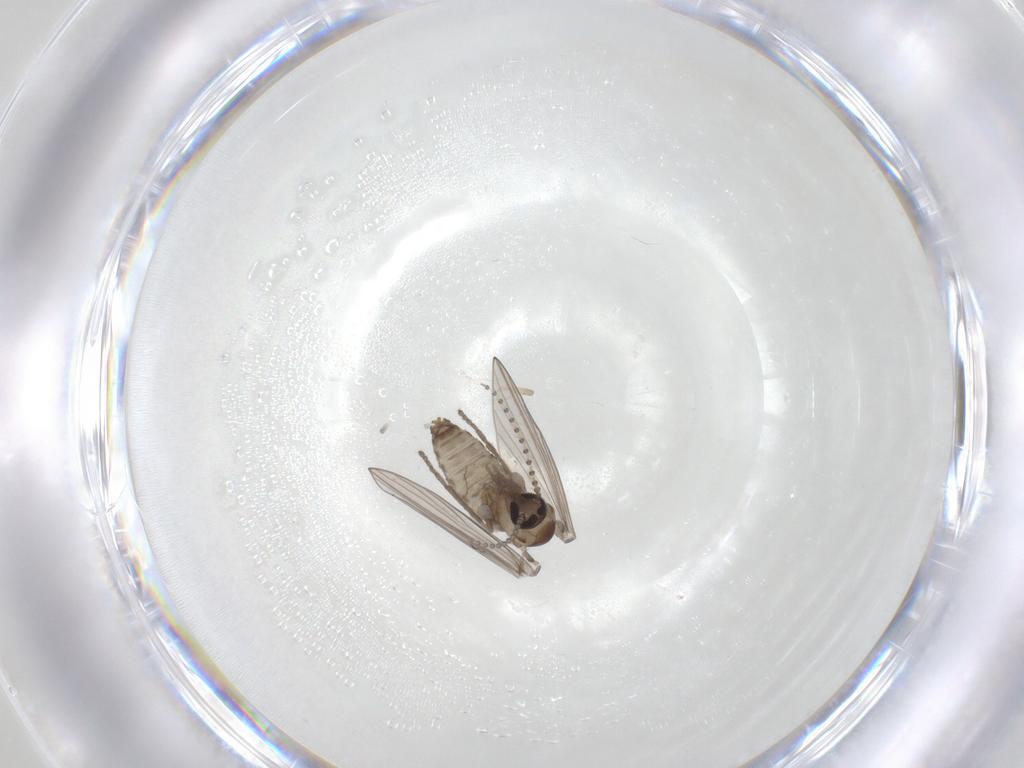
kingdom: Animalia
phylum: Arthropoda
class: Insecta
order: Diptera
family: Psychodidae
